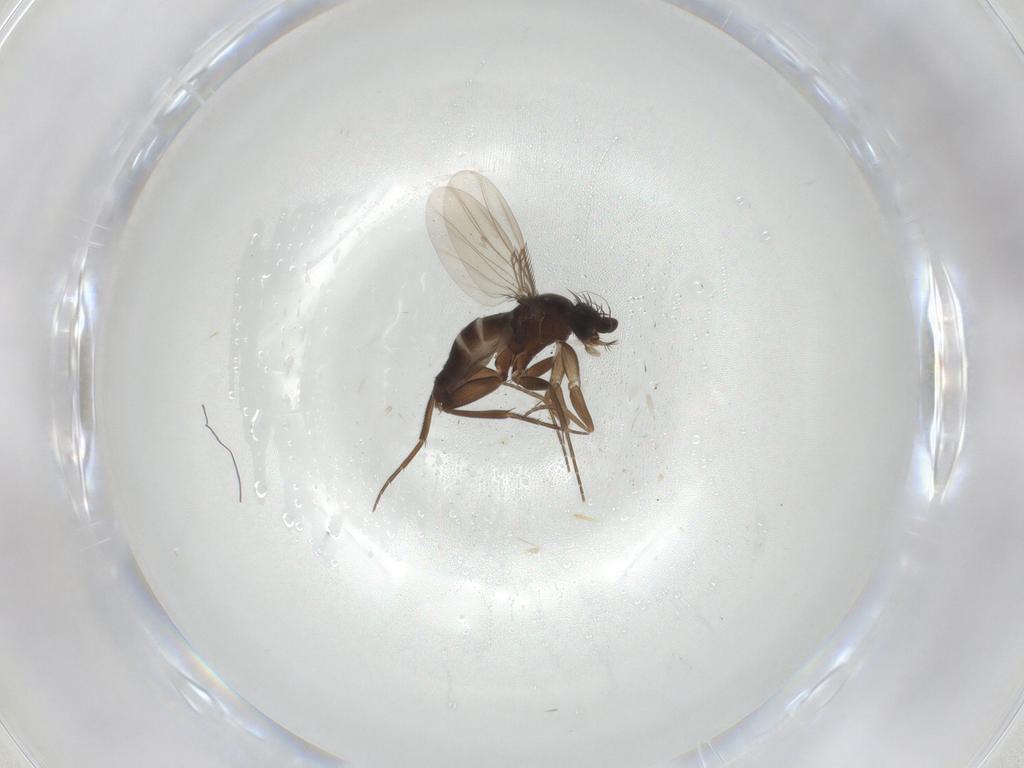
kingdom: Animalia
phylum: Arthropoda
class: Insecta
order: Diptera
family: Phoridae
